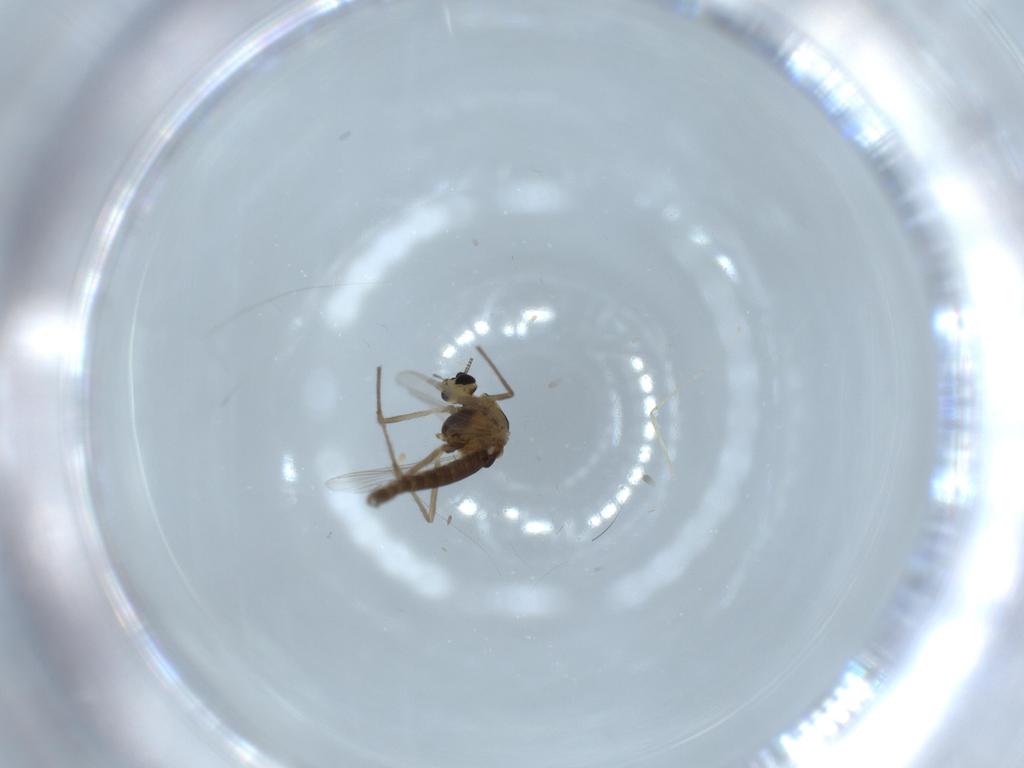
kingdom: Animalia
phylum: Arthropoda
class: Insecta
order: Diptera
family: Chironomidae
